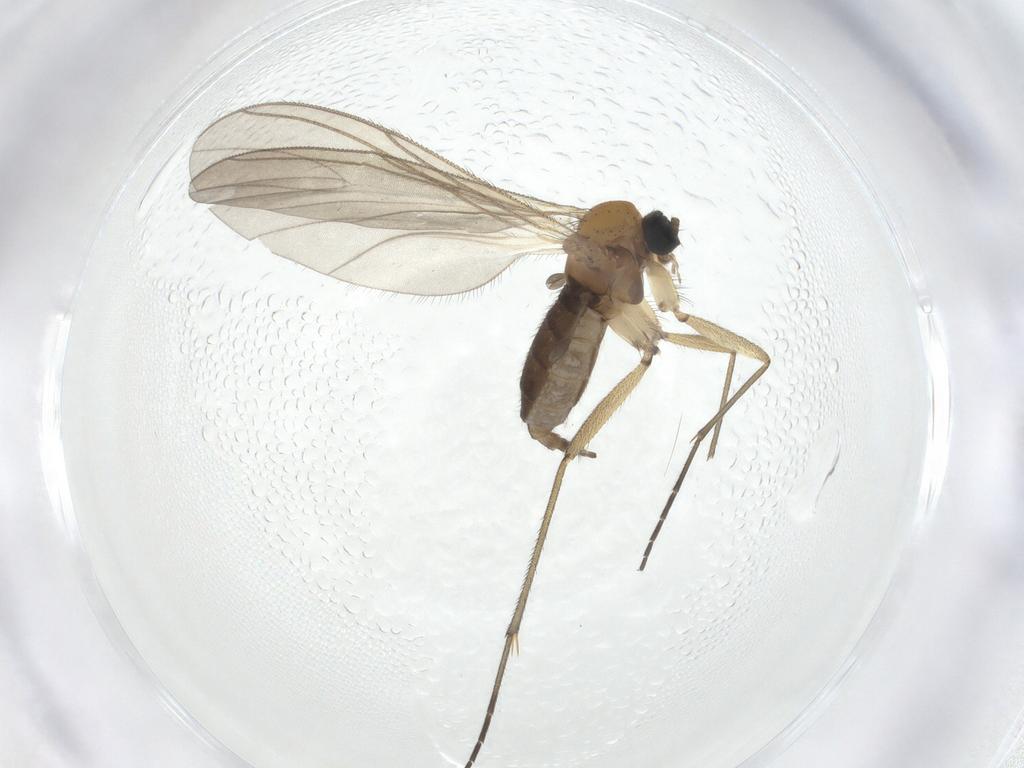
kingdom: Animalia
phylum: Arthropoda
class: Insecta
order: Diptera
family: Sciaridae
